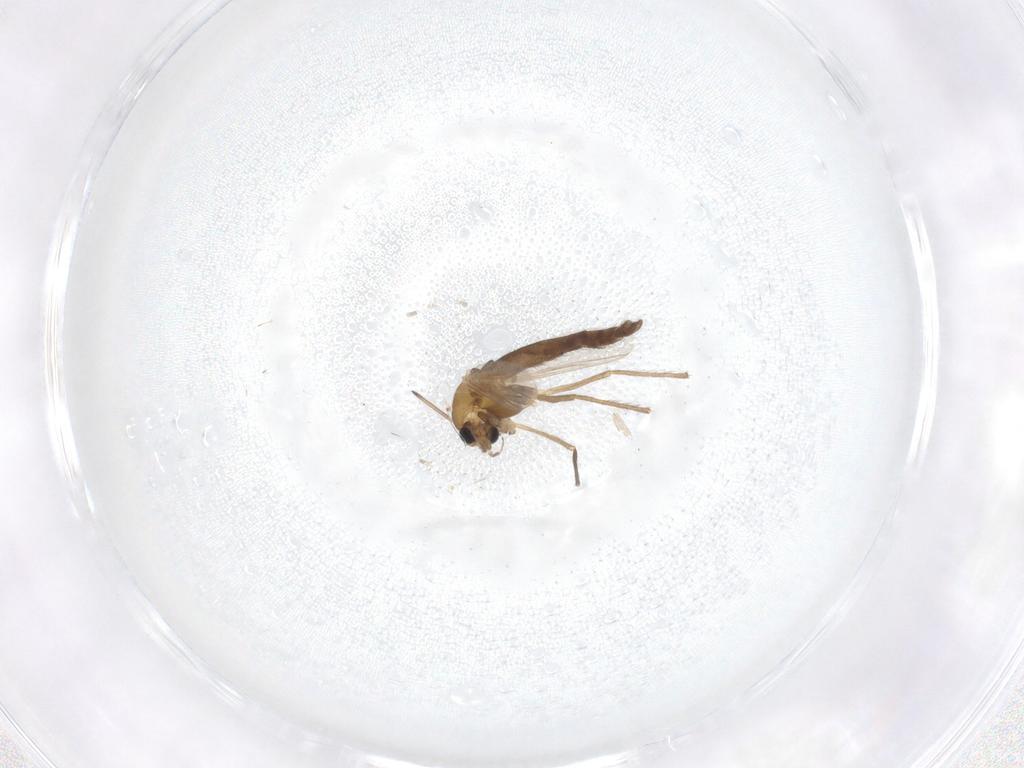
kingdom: Animalia
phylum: Arthropoda
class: Insecta
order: Diptera
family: Chironomidae
